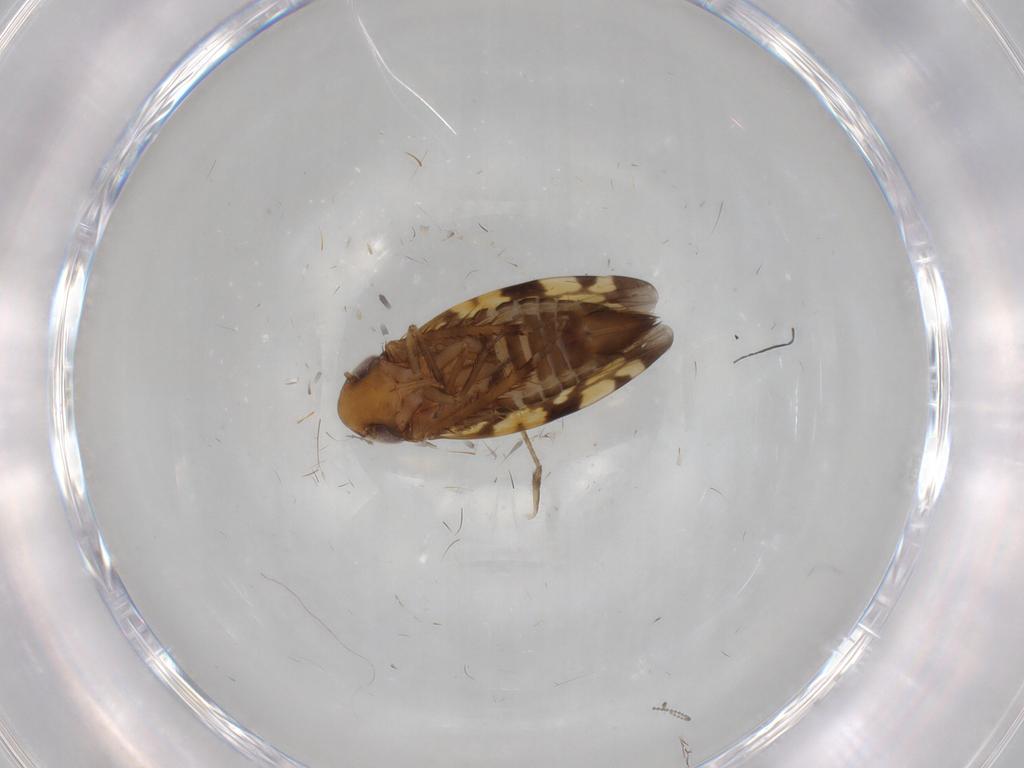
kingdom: Animalia
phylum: Arthropoda
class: Insecta
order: Hemiptera
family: Cicadellidae
